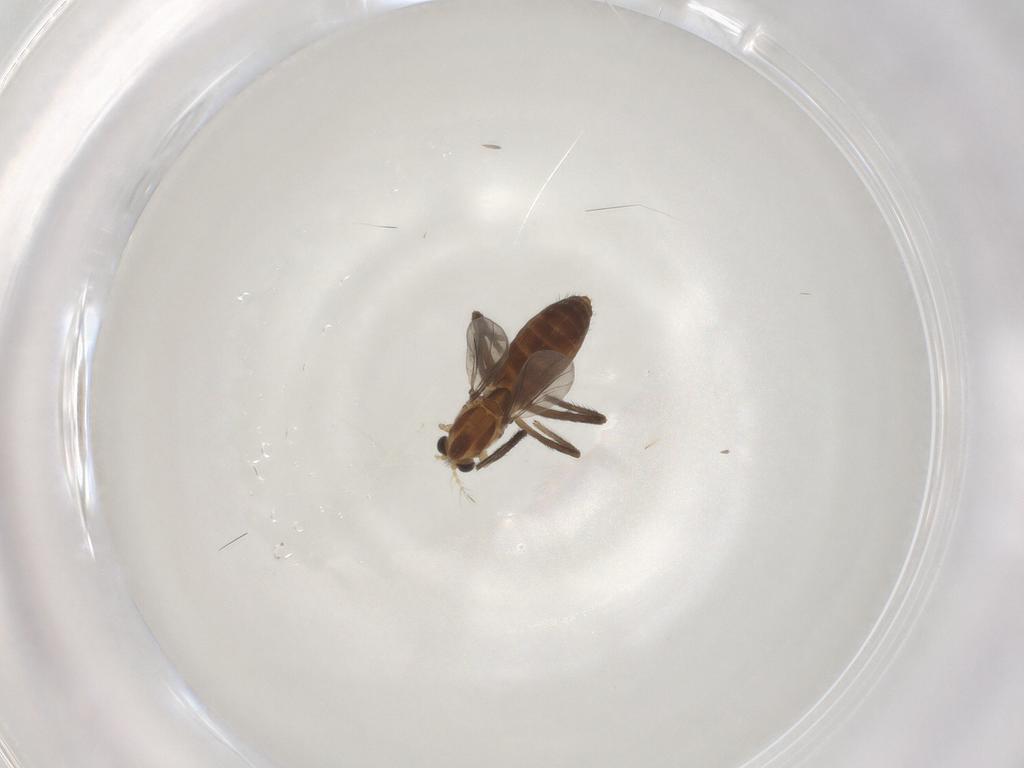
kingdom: Animalia
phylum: Arthropoda
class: Insecta
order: Diptera
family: Chironomidae
